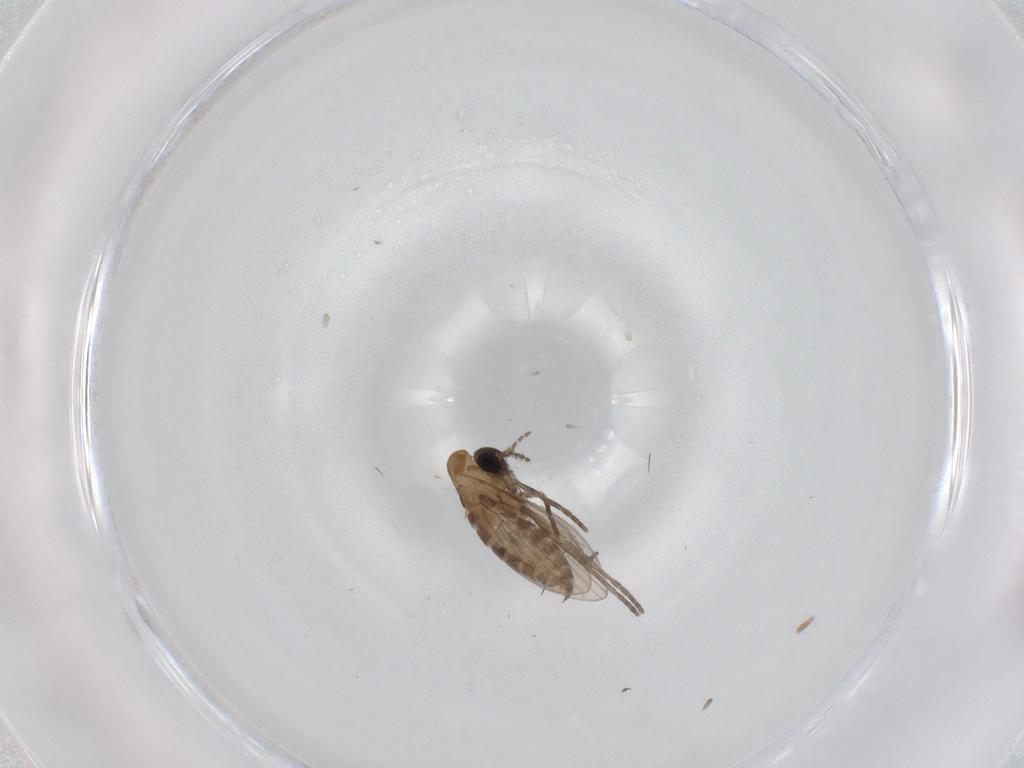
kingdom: Animalia
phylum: Arthropoda
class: Insecta
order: Diptera
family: Psychodidae
